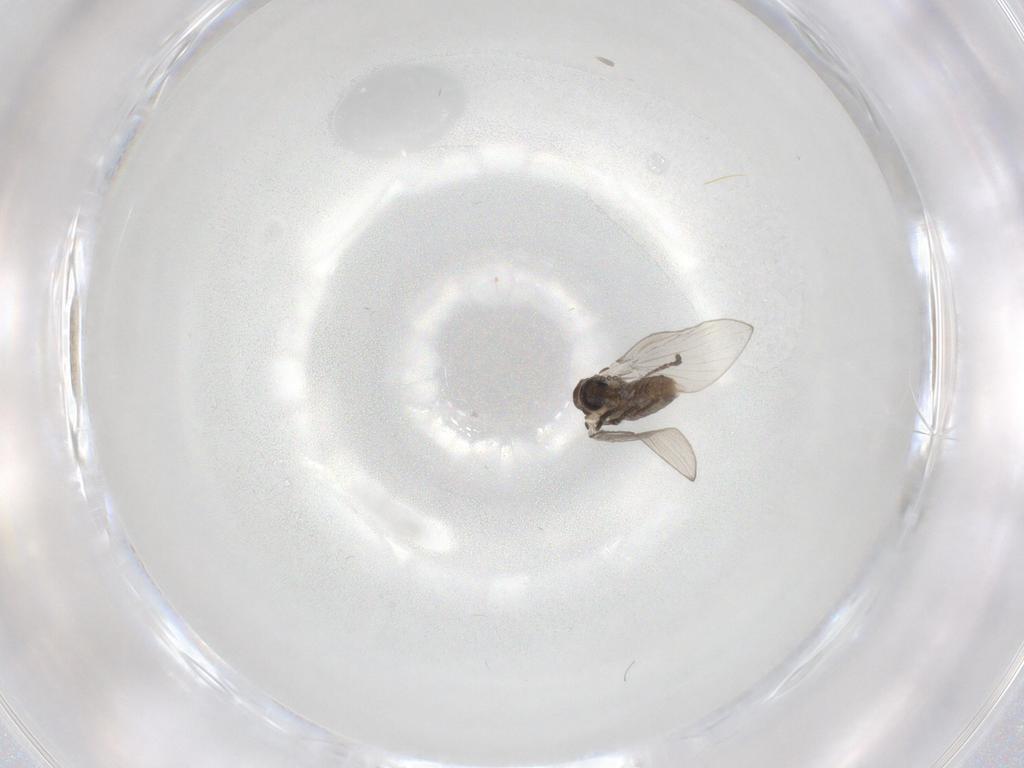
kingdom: Animalia
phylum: Arthropoda
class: Insecta
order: Diptera
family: Psychodidae
